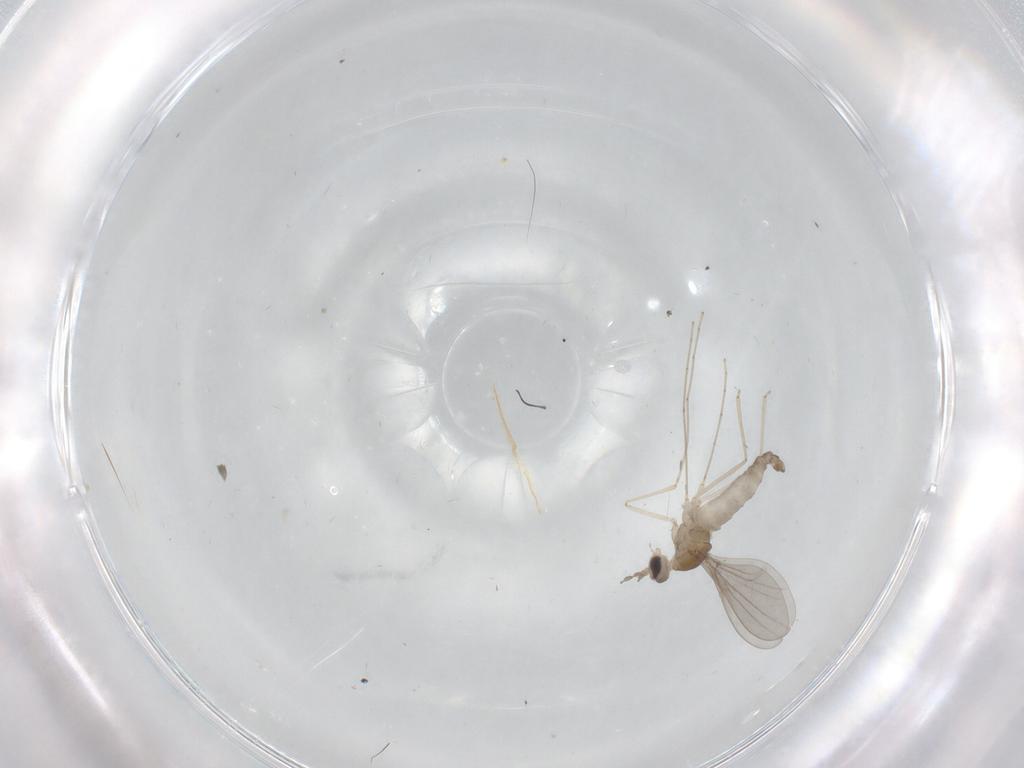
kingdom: Animalia
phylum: Arthropoda
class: Insecta
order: Diptera
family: Cecidomyiidae
